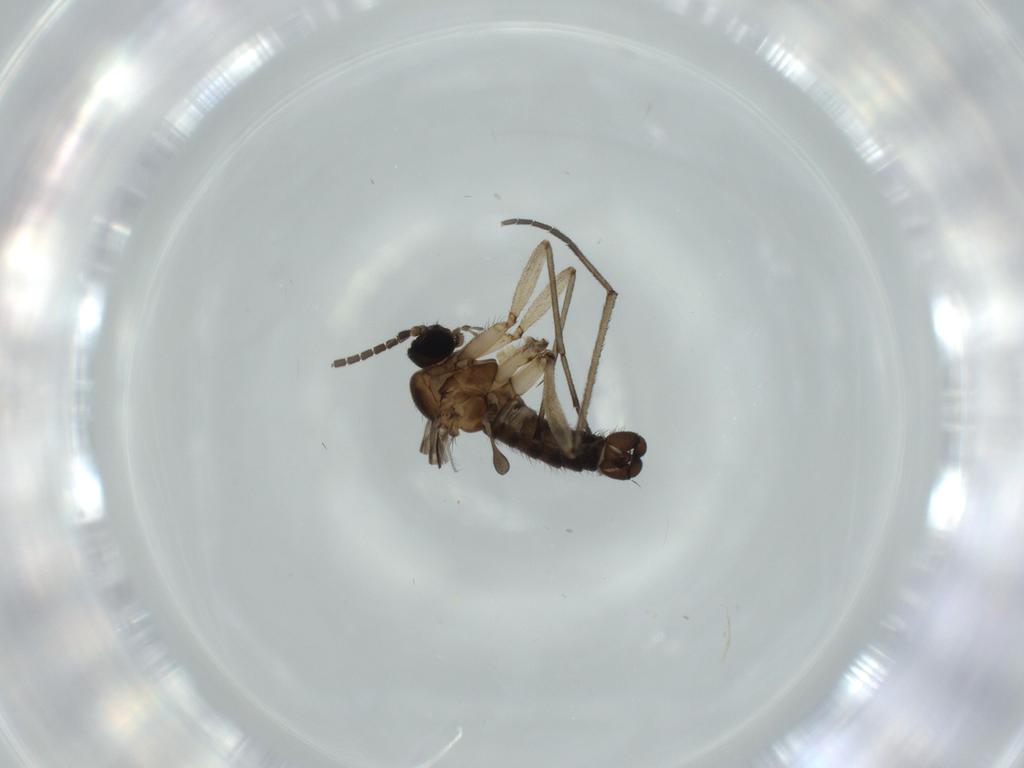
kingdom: Animalia
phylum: Arthropoda
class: Insecta
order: Diptera
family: Sciaridae
